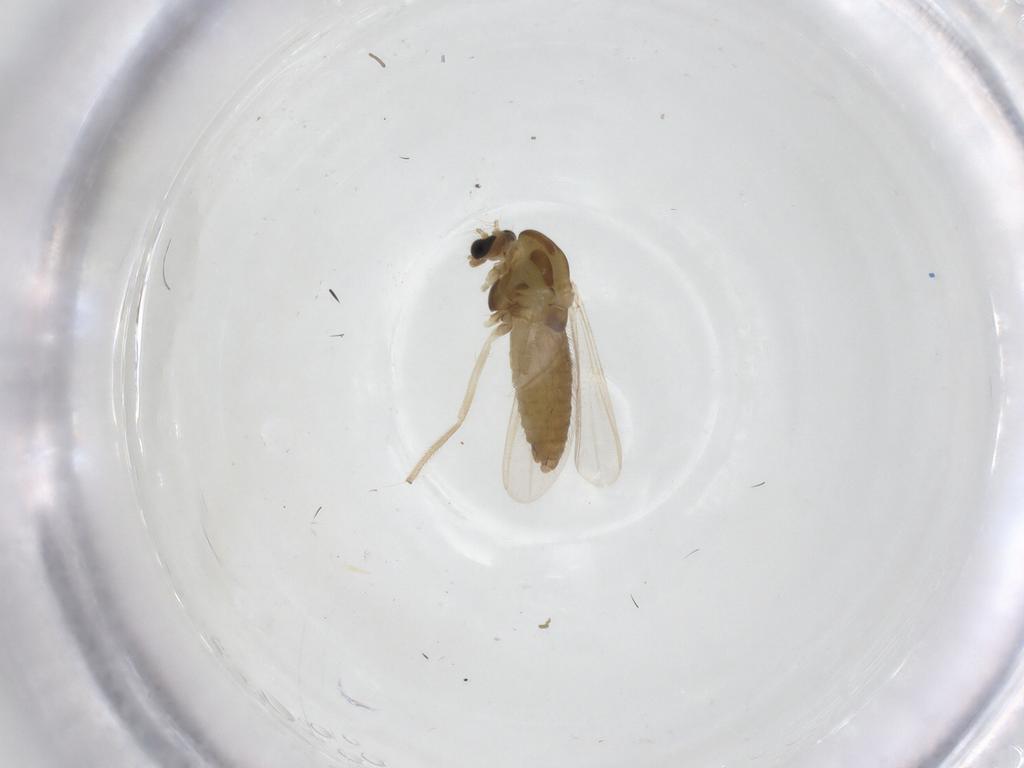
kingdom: Animalia
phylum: Arthropoda
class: Insecta
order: Diptera
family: Chironomidae
